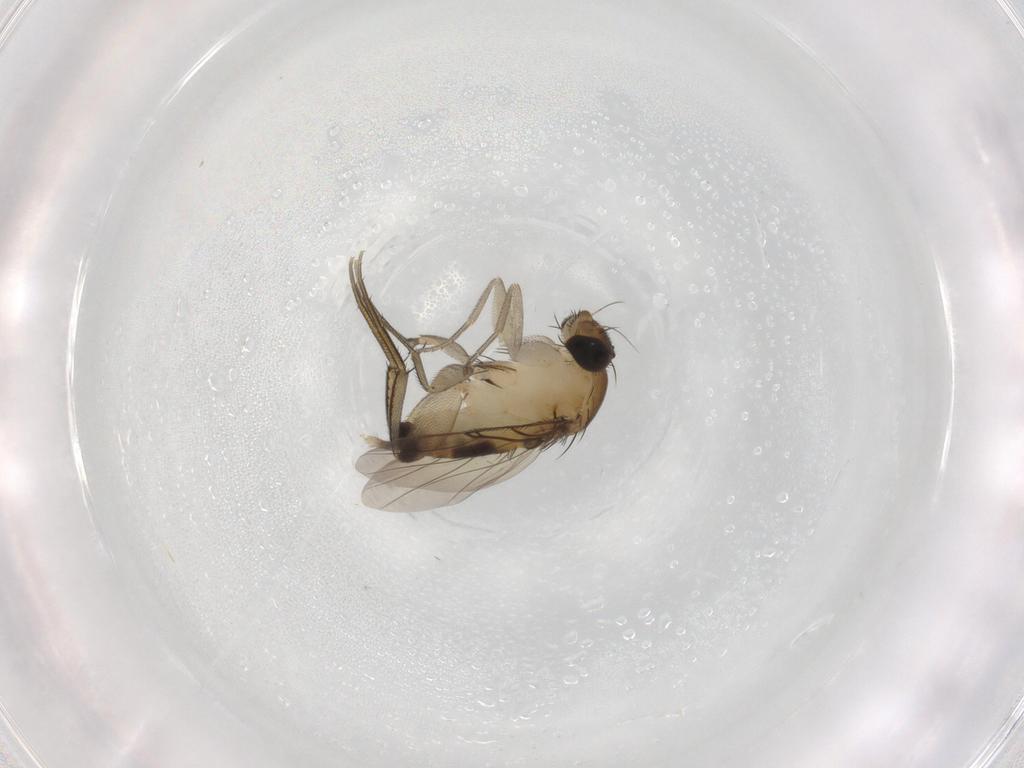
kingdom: Animalia
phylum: Arthropoda
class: Insecta
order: Diptera
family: Phoridae
